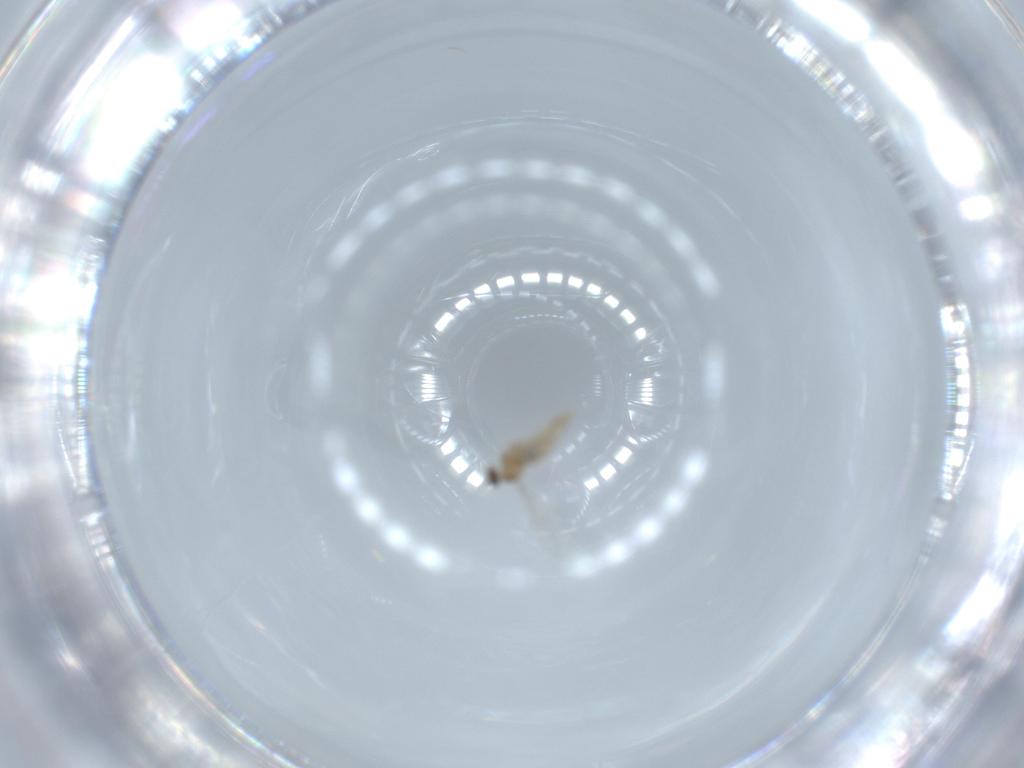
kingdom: Animalia
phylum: Arthropoda
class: Insecta
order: Diptera
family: Cecidomyiidae
